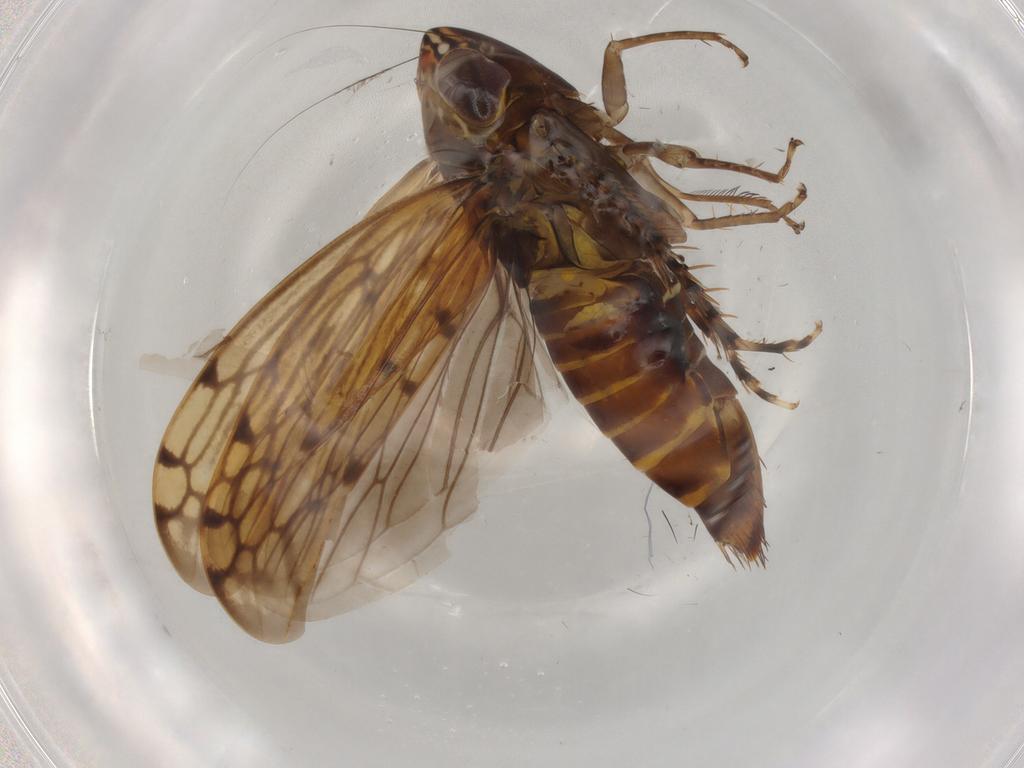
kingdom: Animalia
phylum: Arthropoda
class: Insecta
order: Hemiptera
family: Cicadellidae
